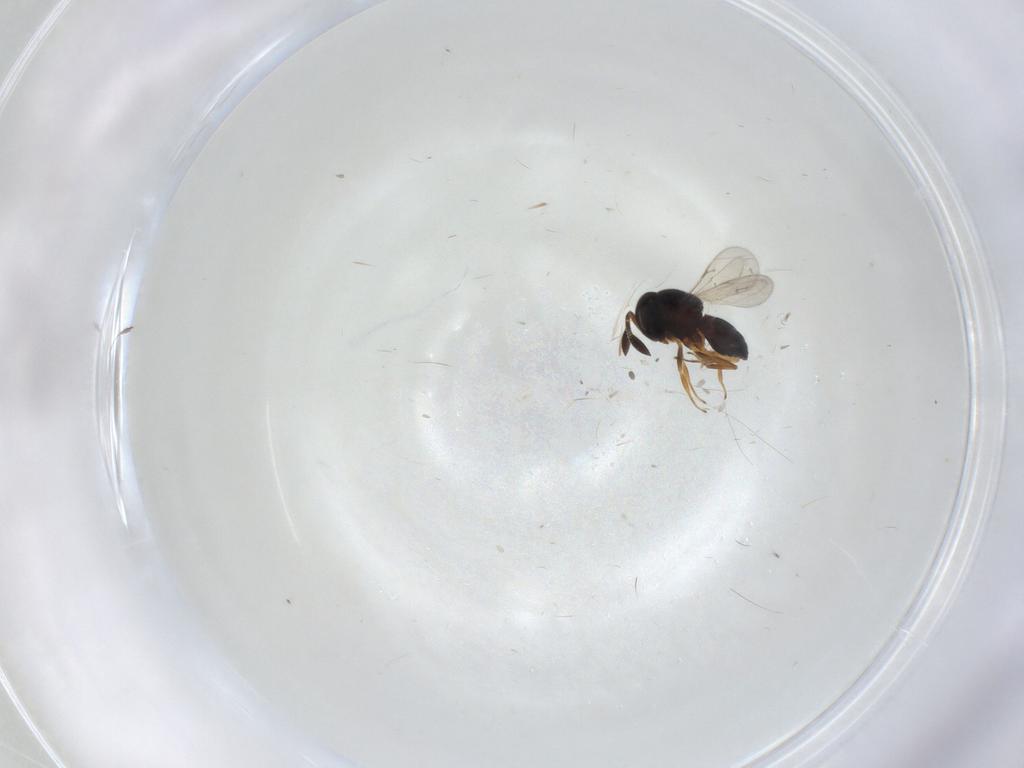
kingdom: Animalia
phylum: Arthropoda
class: Insecta
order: Hymenoptera
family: Scelionidae
